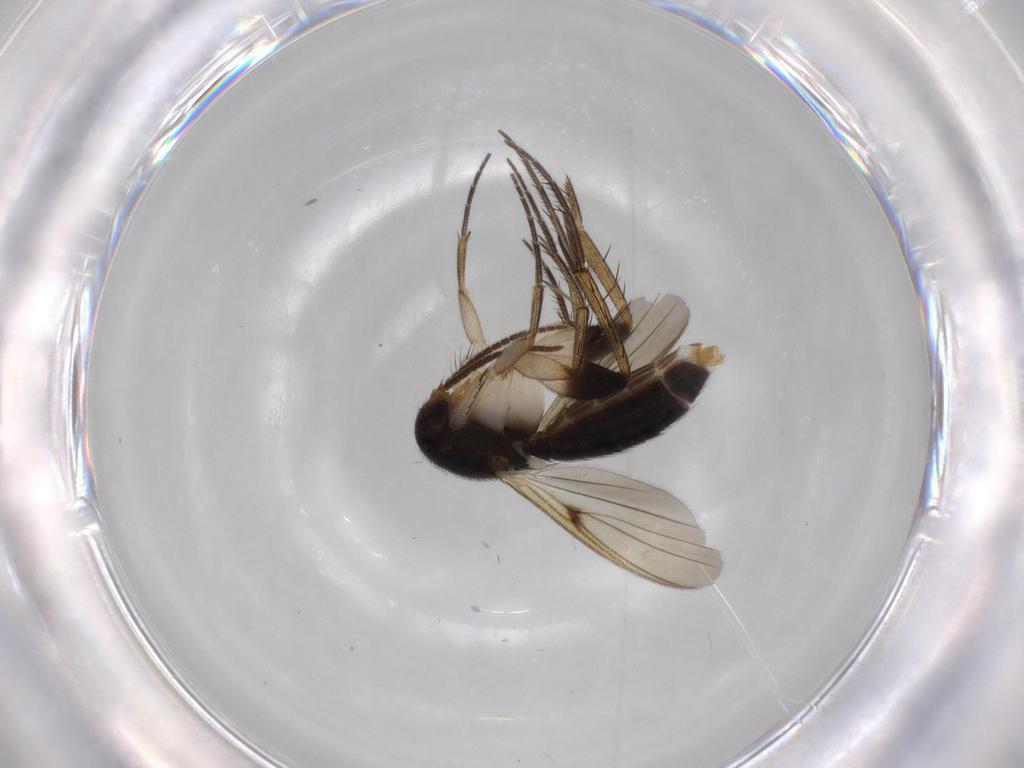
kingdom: Animalia
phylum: Arthropoda
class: Insecta
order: Diptera
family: Mycetophilidae
